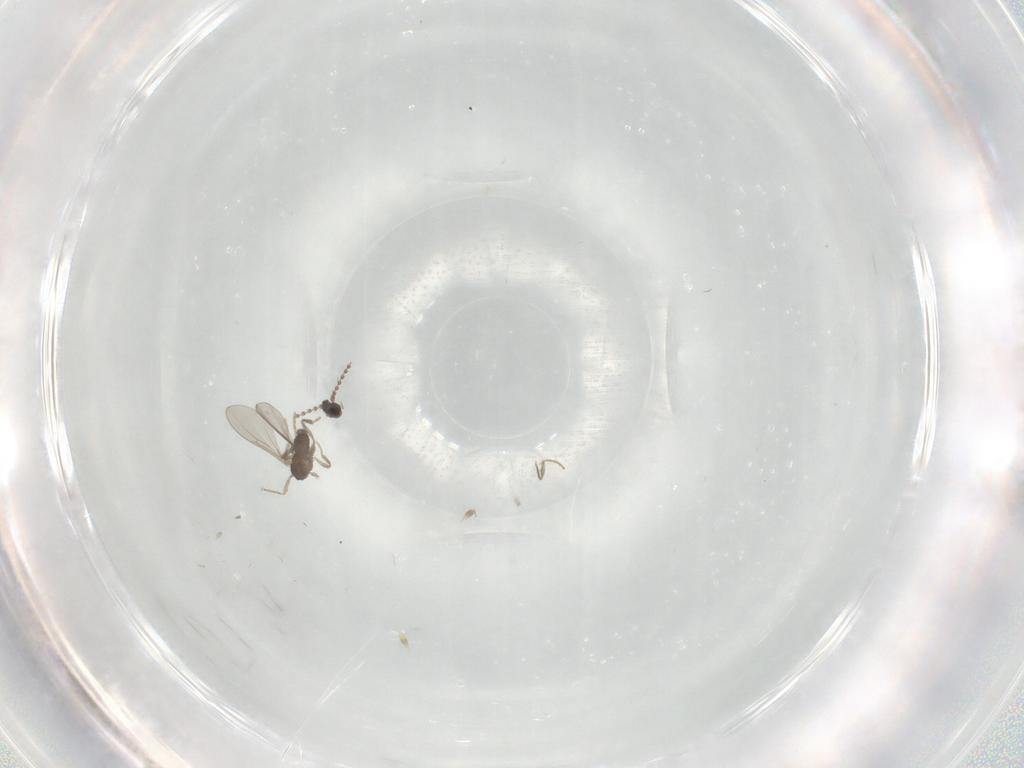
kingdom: Animalia
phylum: Arthropoda
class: Insecta
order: Diptera
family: Cecidomyiidae
